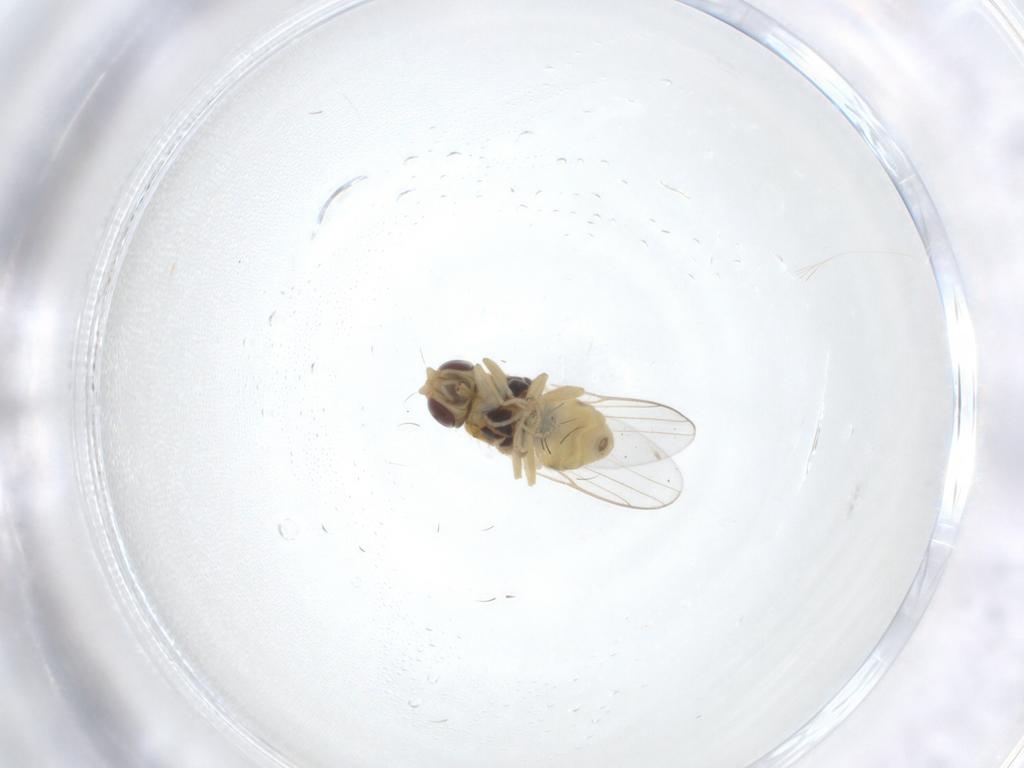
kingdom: Animalia
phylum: Arthropoda
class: Insecta
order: Diptera
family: Chloropidae
